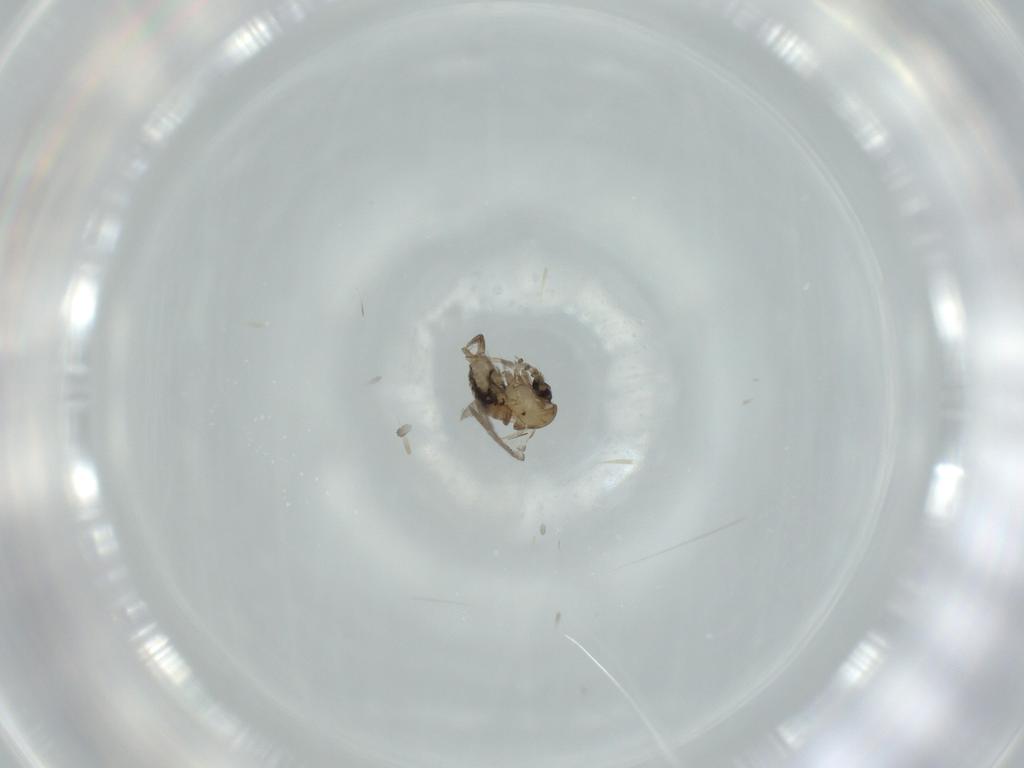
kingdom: Animalia
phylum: Arthropoda
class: Insecta
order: Diptera
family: Psychodidae
